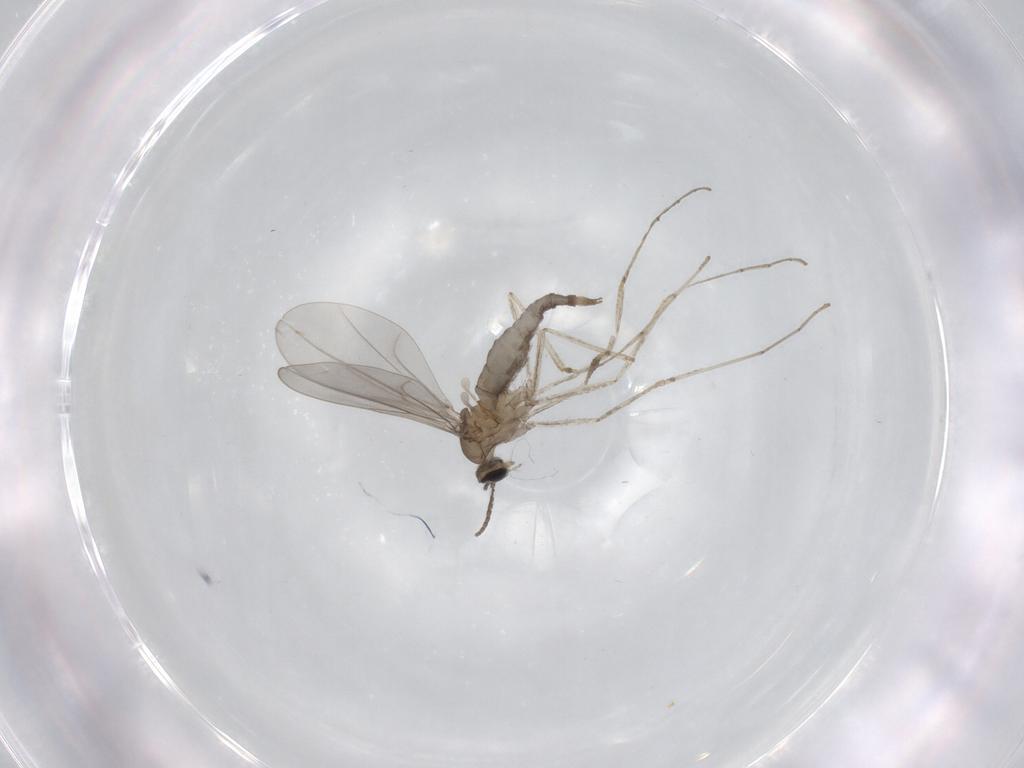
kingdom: Animalia
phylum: Arthropoda
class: Insecta
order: Diptera
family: Cecidomyiidae
